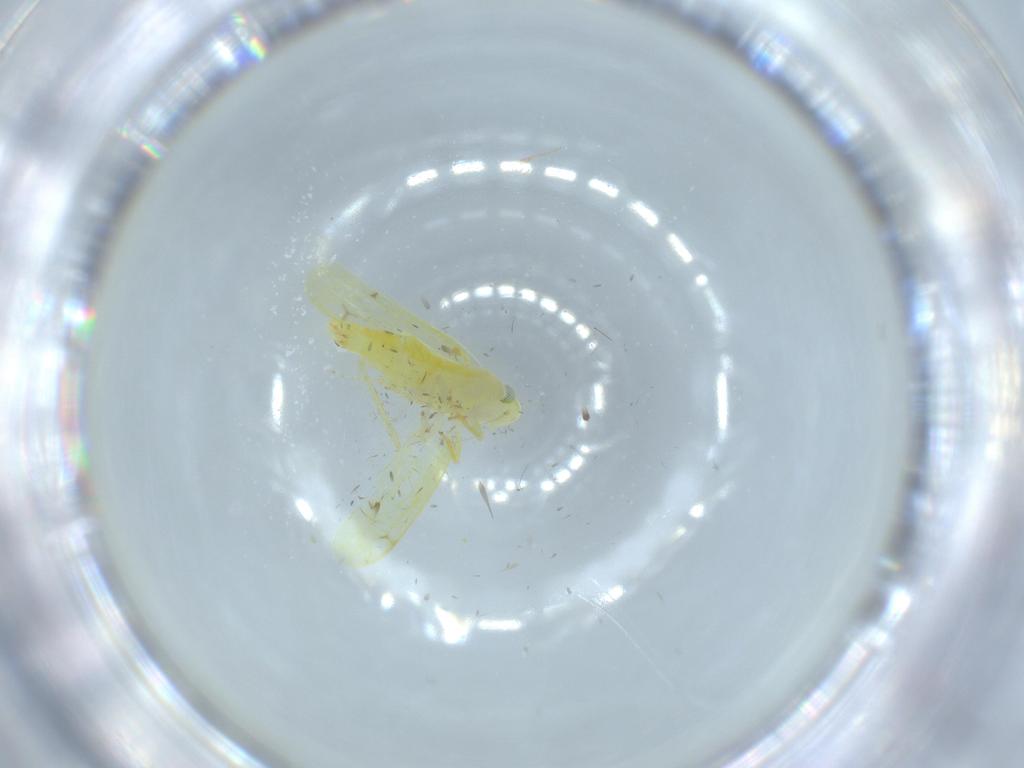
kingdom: Animalia
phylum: Arthropoda
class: Insecta
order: Hemiptera
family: Cicadellidae
